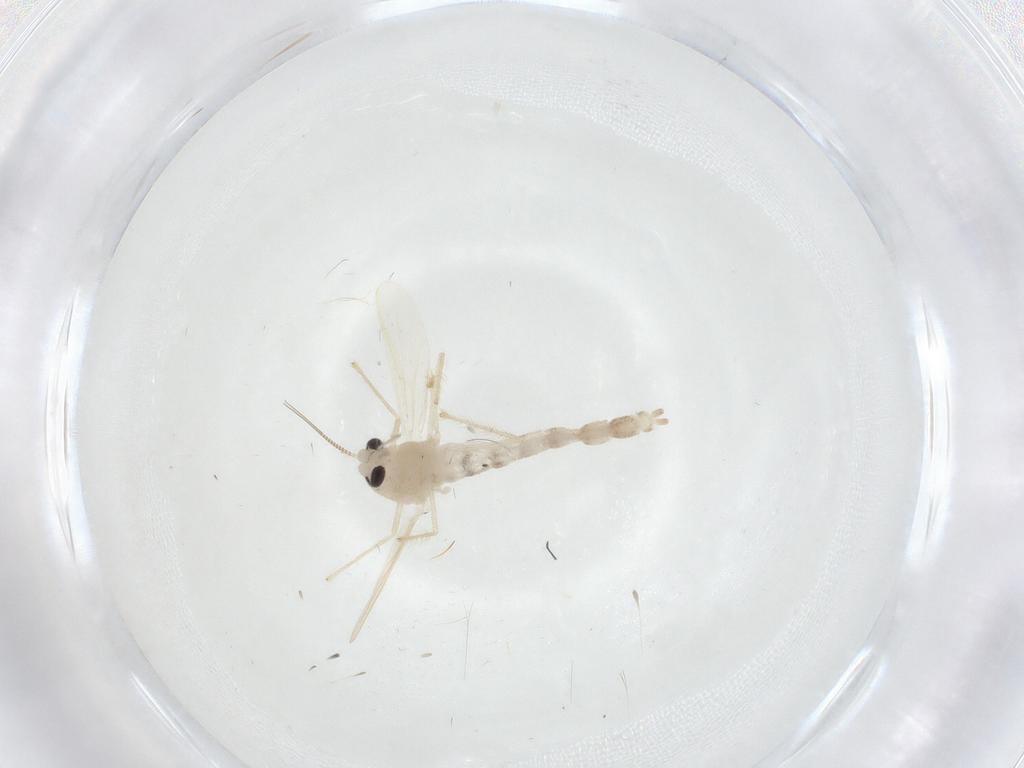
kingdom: Animalia
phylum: Arthropoda
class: Insecta
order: Diptera
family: Chironomidae
